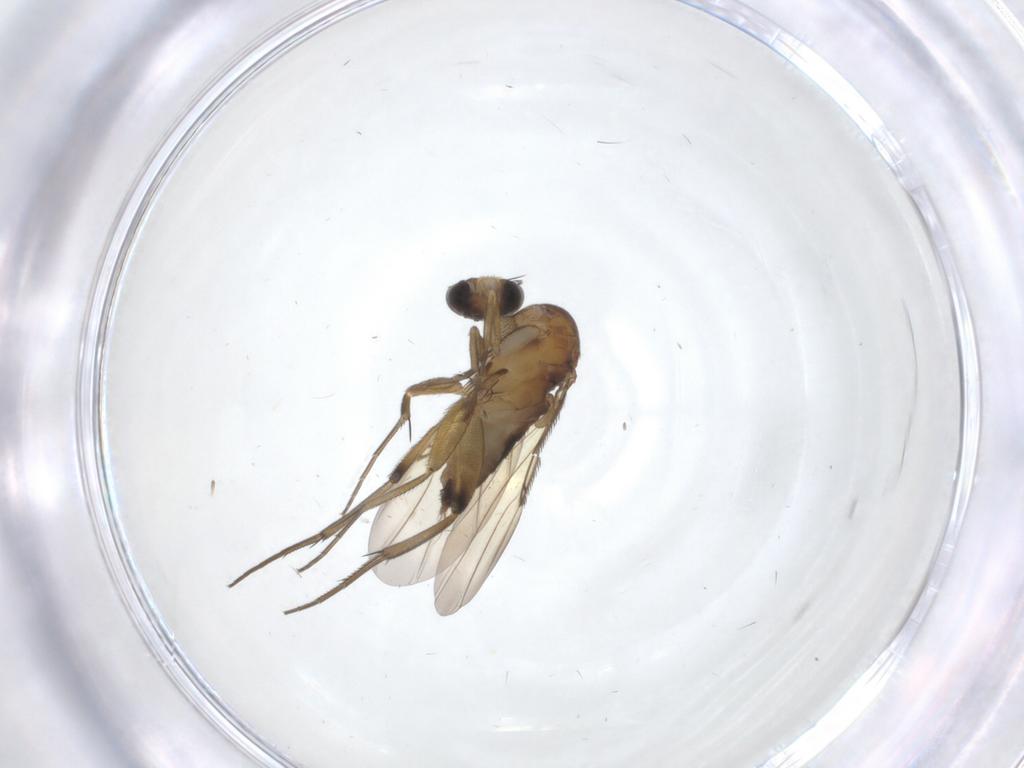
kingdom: Animalia
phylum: Arthropoda
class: Insecta
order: Diptera
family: Phoridae
